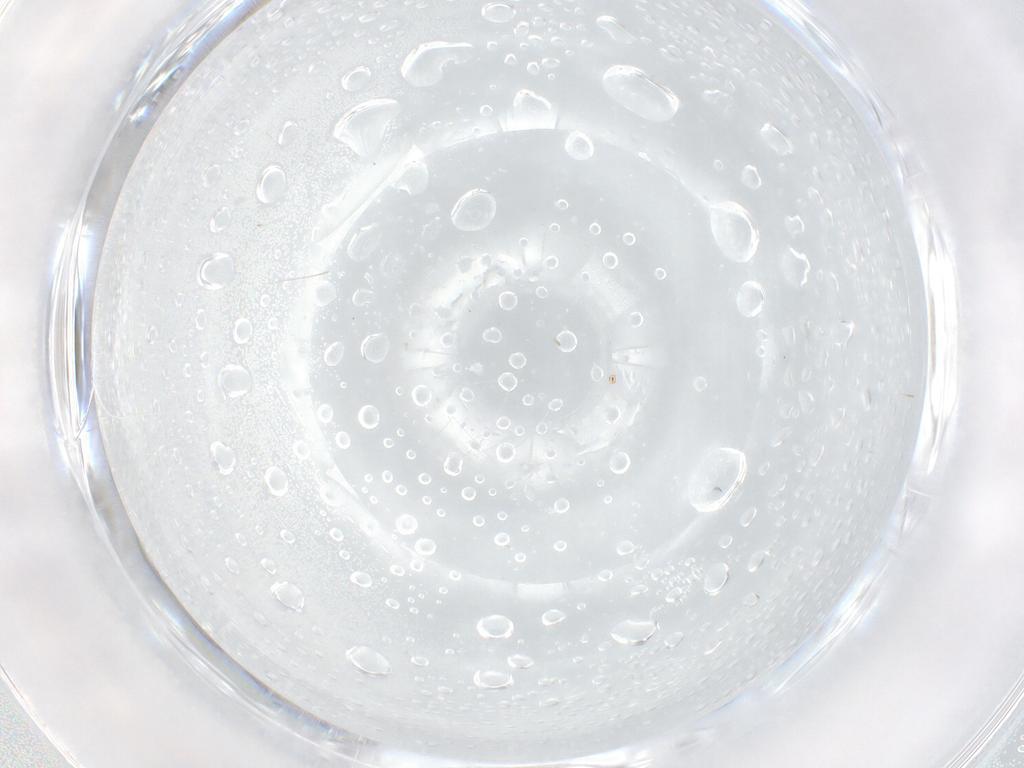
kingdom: Animalia
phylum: Arthropoda
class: Insecta
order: Diptera
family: Cecidomyiidae
